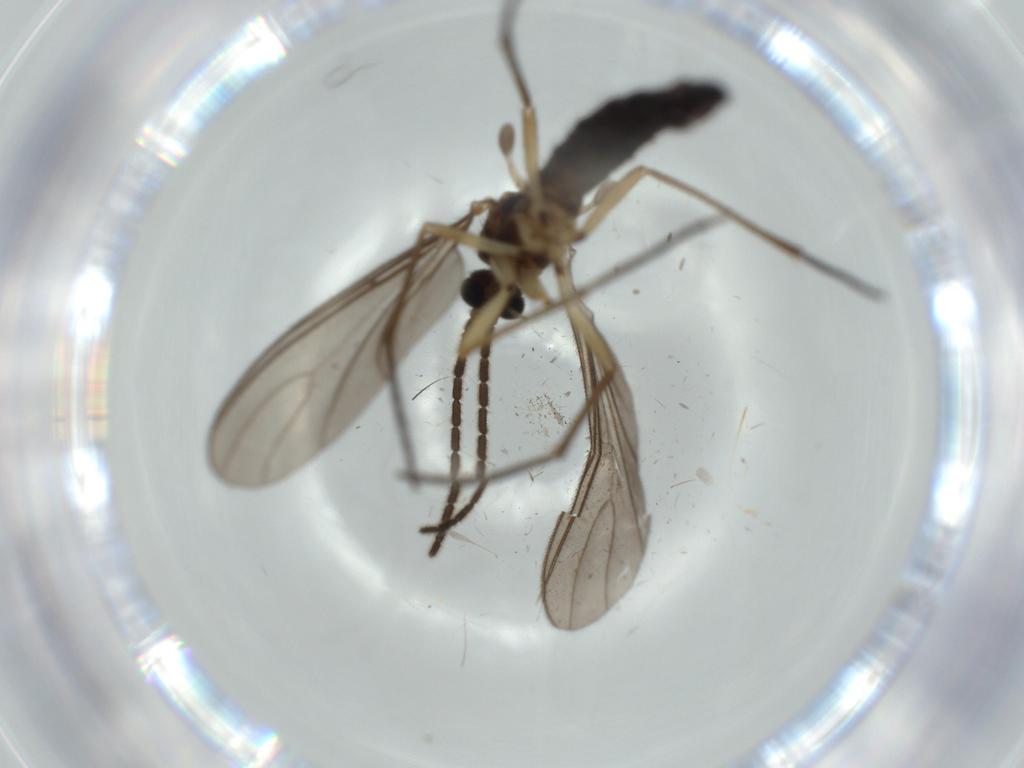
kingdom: Animalia
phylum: Arthropoda
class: Insecta
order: Diptera
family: Sciaridae
